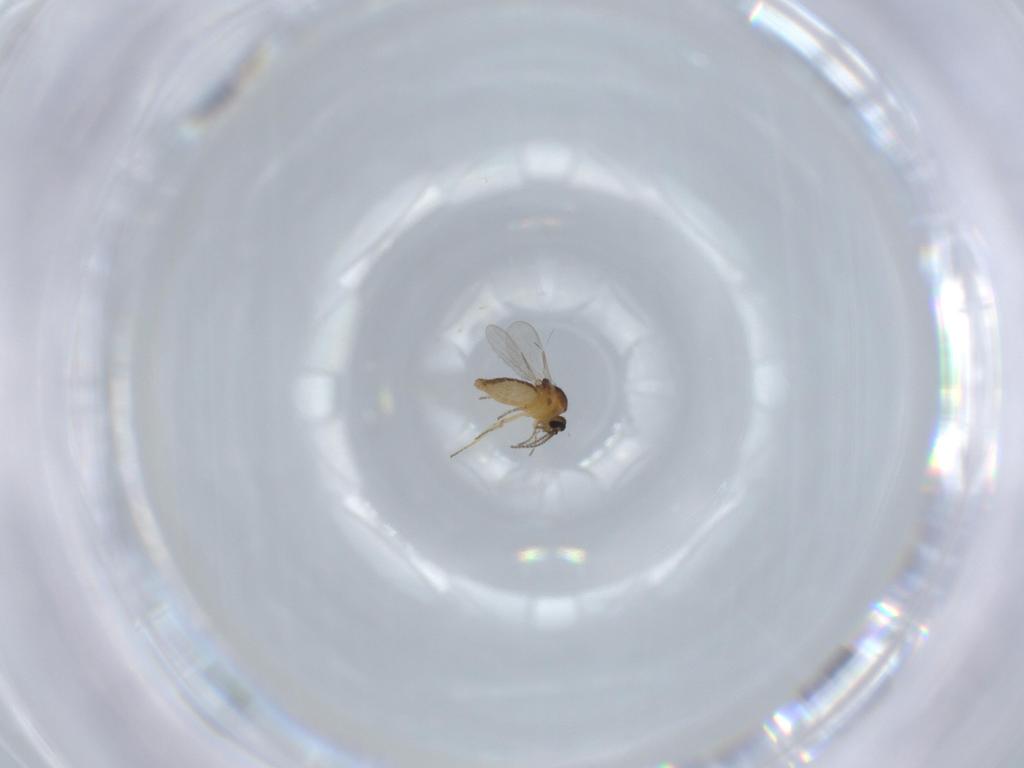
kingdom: Animalia
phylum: Arthropoda
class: Insecta
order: Diptera
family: Ceratopogonidae
